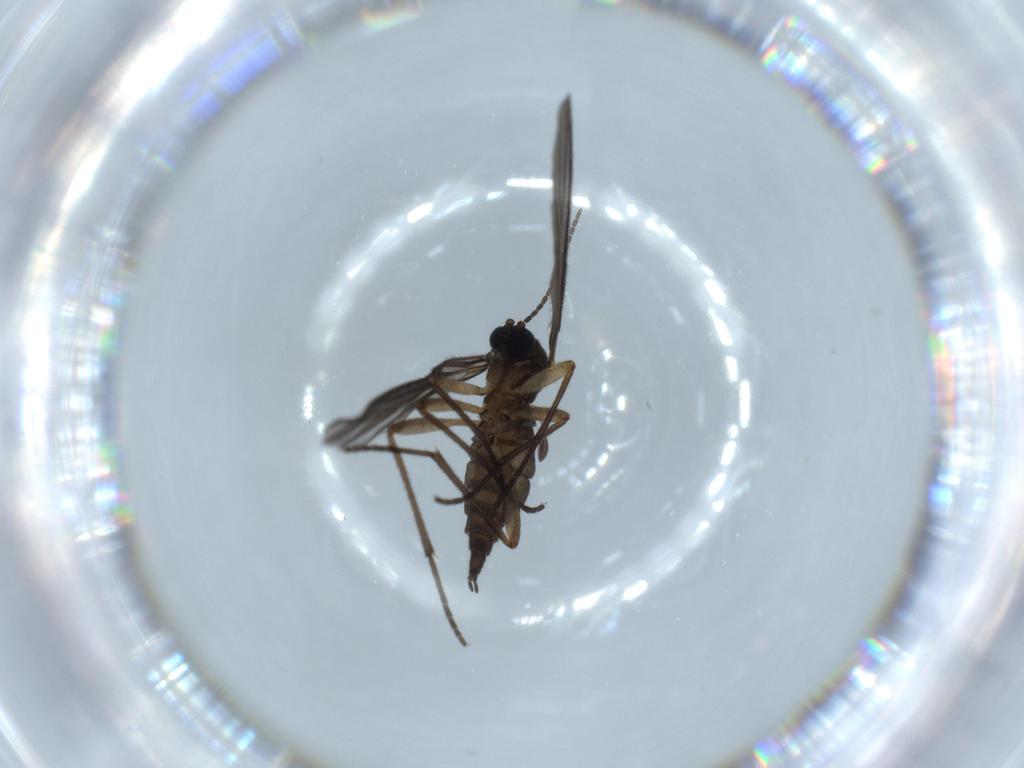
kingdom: Animalia
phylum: Arthropoda
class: Insecta
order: Diptera
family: Sciaridae
